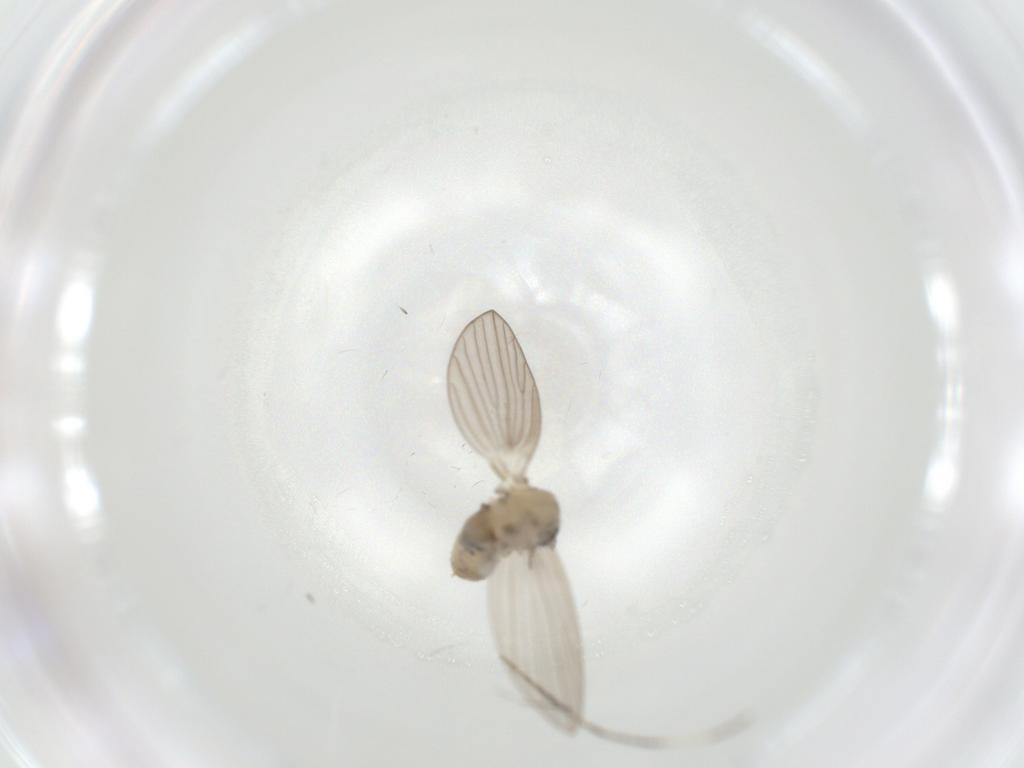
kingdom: Animalia
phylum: Arthropoda
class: Insecta
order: Diptera
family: Psychodidae
